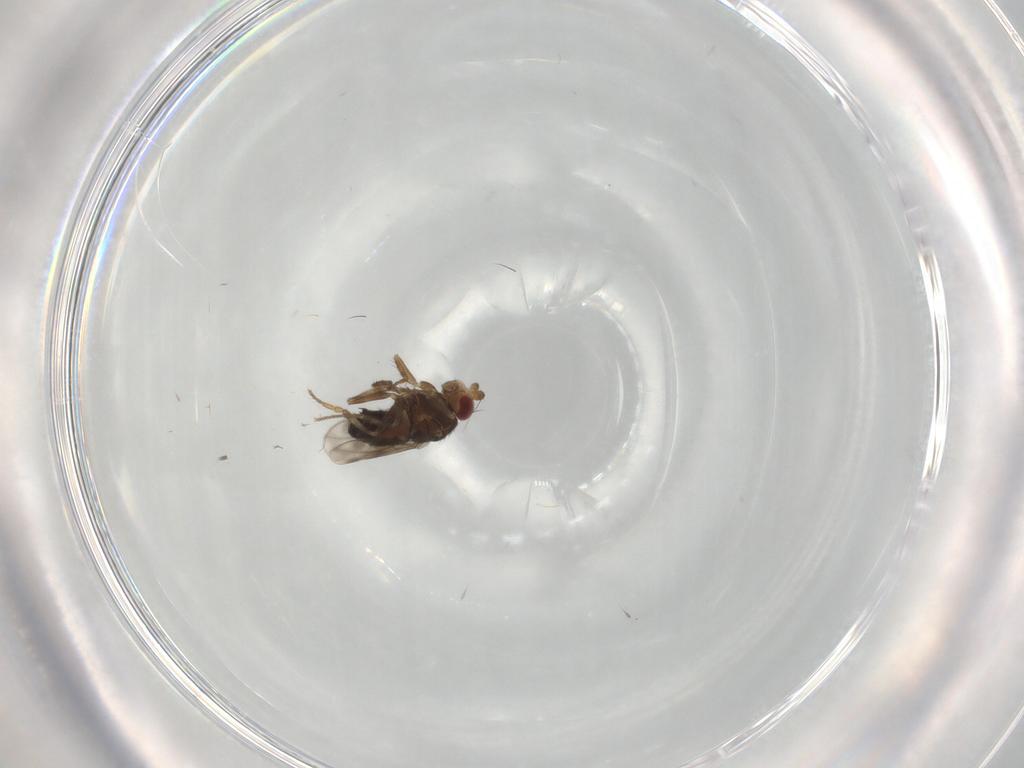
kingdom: Animalia
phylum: Arthropoda
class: Insecta
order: Diptera
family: Sphaeroceridae
